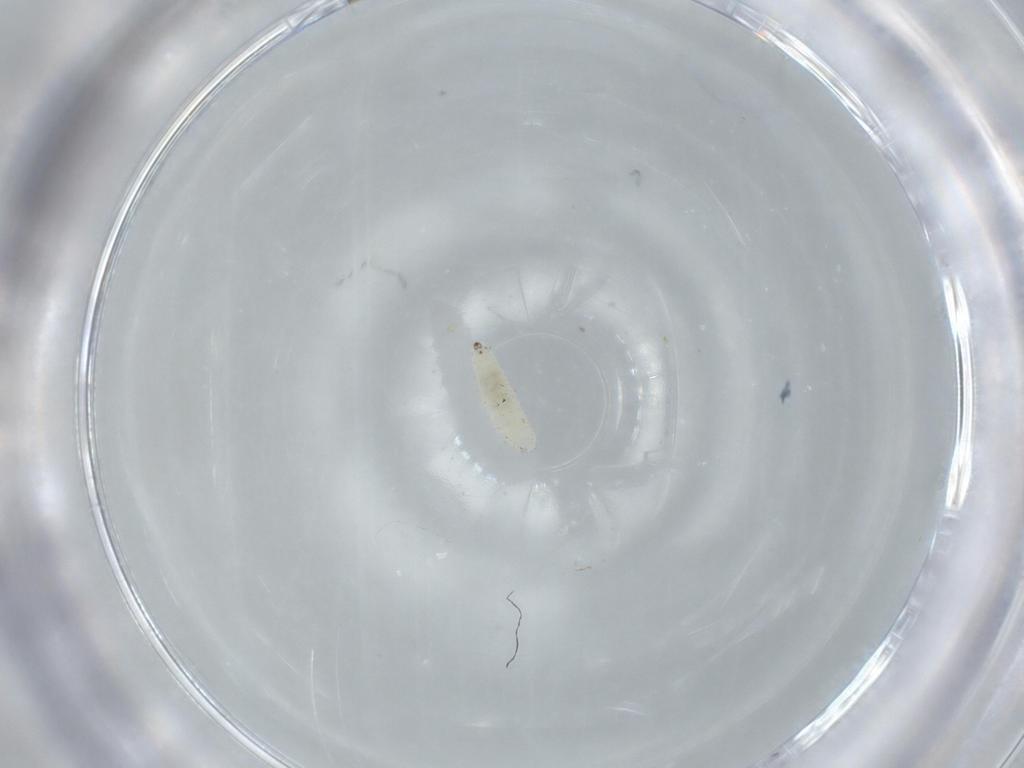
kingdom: Animalia
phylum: Arthropoda
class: Insecta
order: Diptera
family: Cecidomyiidae
